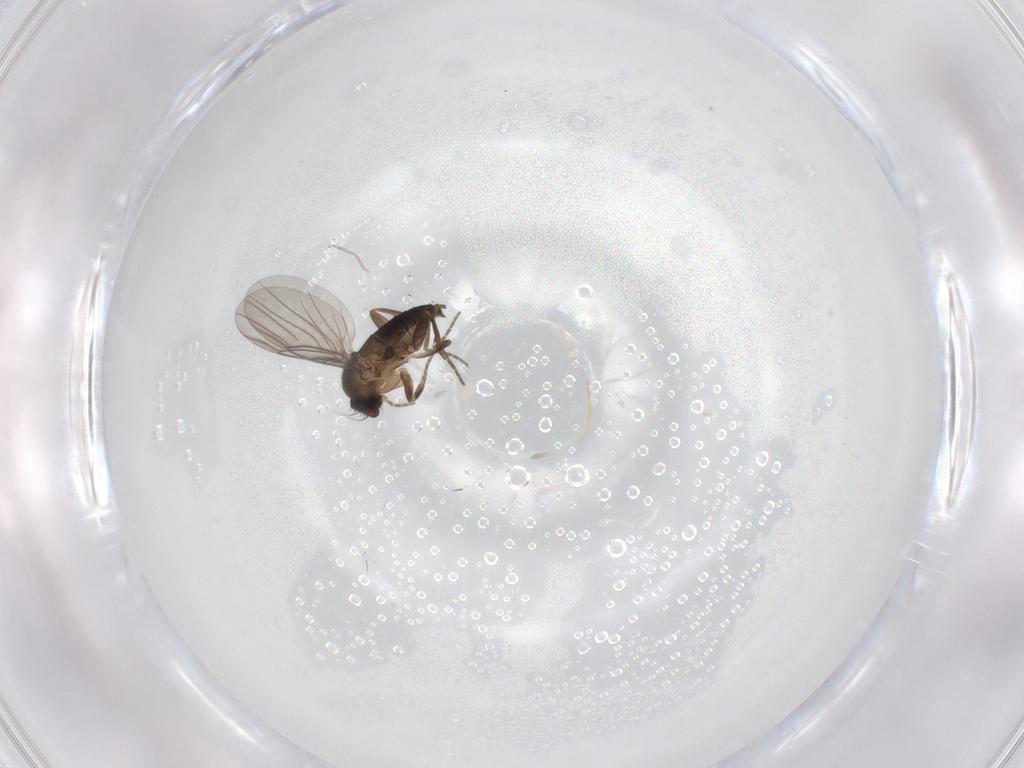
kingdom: Animalia
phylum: Arthropoda
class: Insecta
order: Diptera
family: Phoridae
